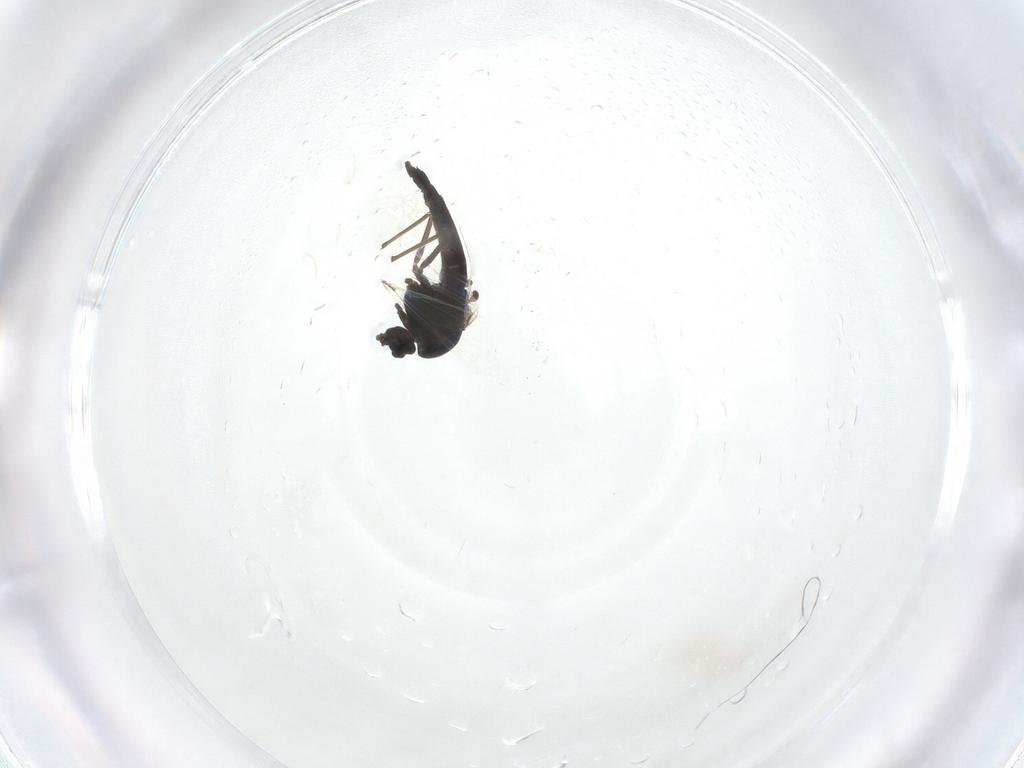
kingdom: Animalia
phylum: Arthropoda
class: Insecta
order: Diptera
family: Chironomidae
